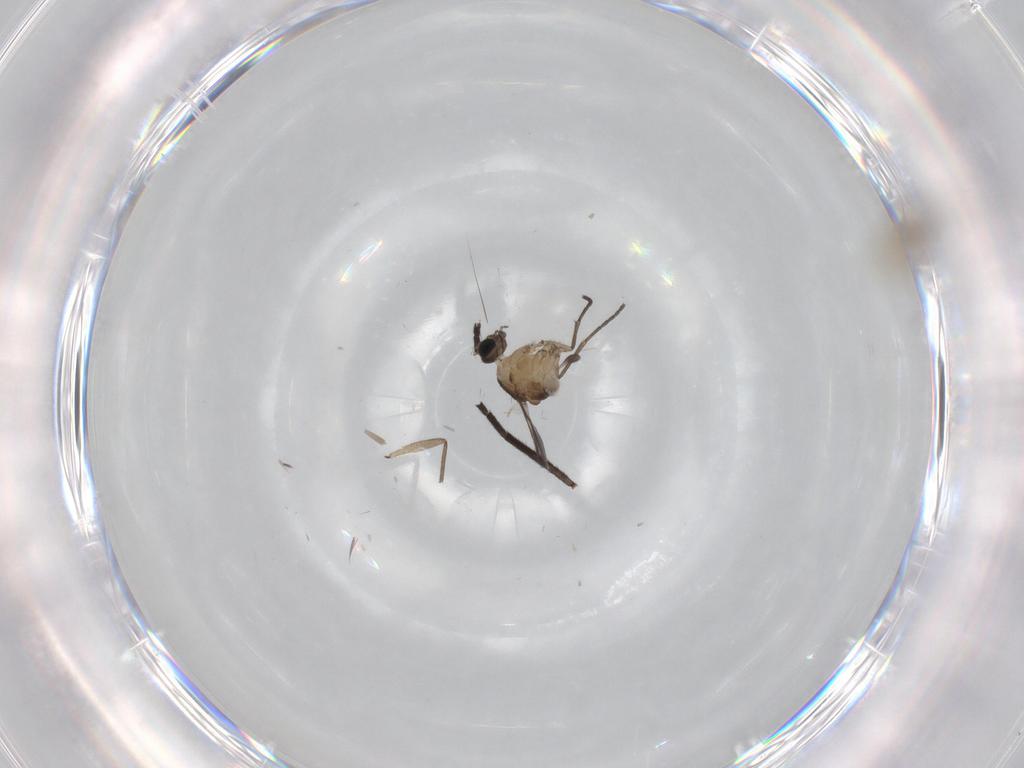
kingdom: Animalia
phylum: Arthropoda
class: Insecta
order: Diptera
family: Sciaridae
